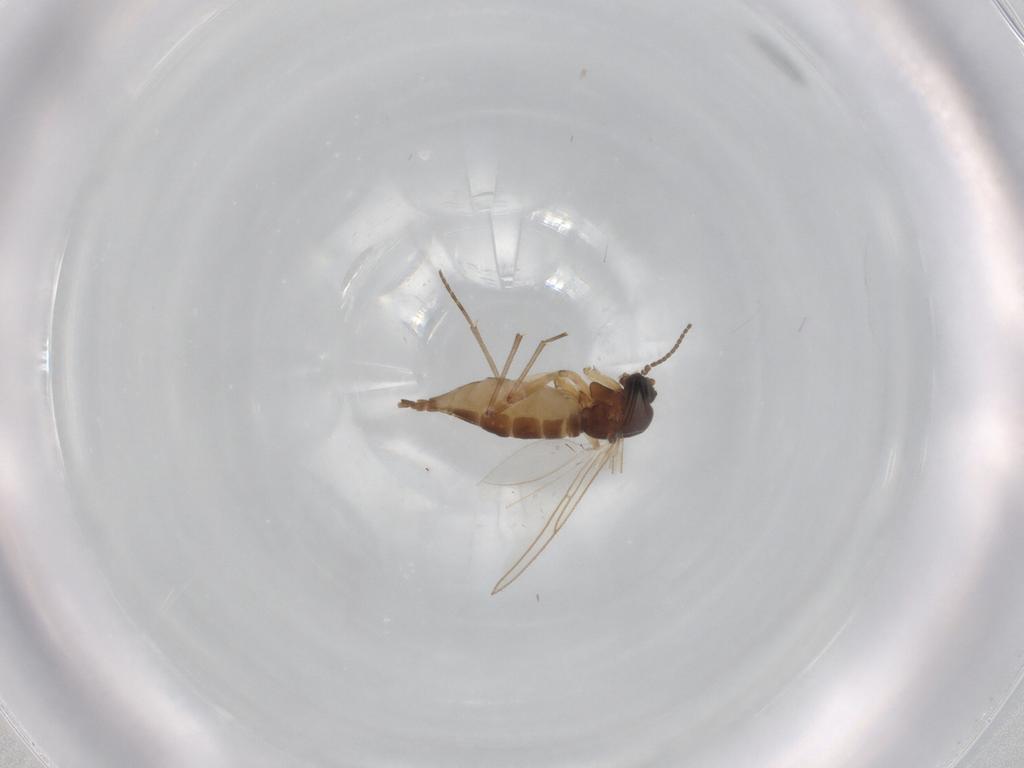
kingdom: Animalia
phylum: Arthropoda
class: Insecta
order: Diptera
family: Sciaridae
